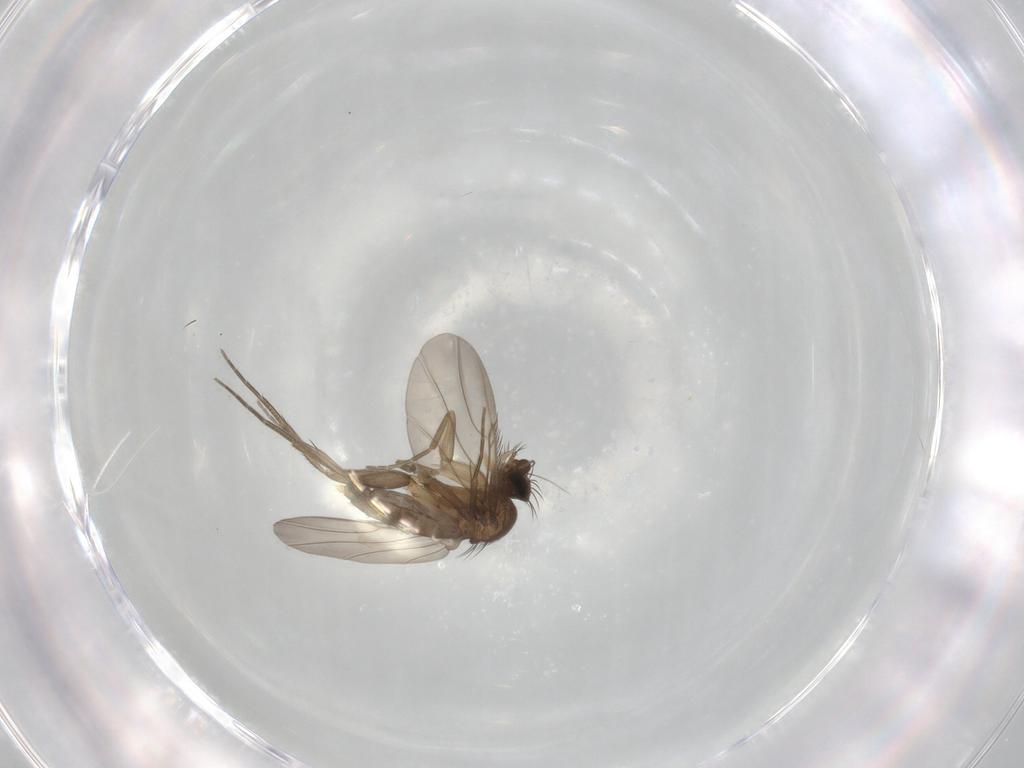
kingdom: Animalia
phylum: Arthropoda
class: Insecta
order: Diptera
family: Phoridae
